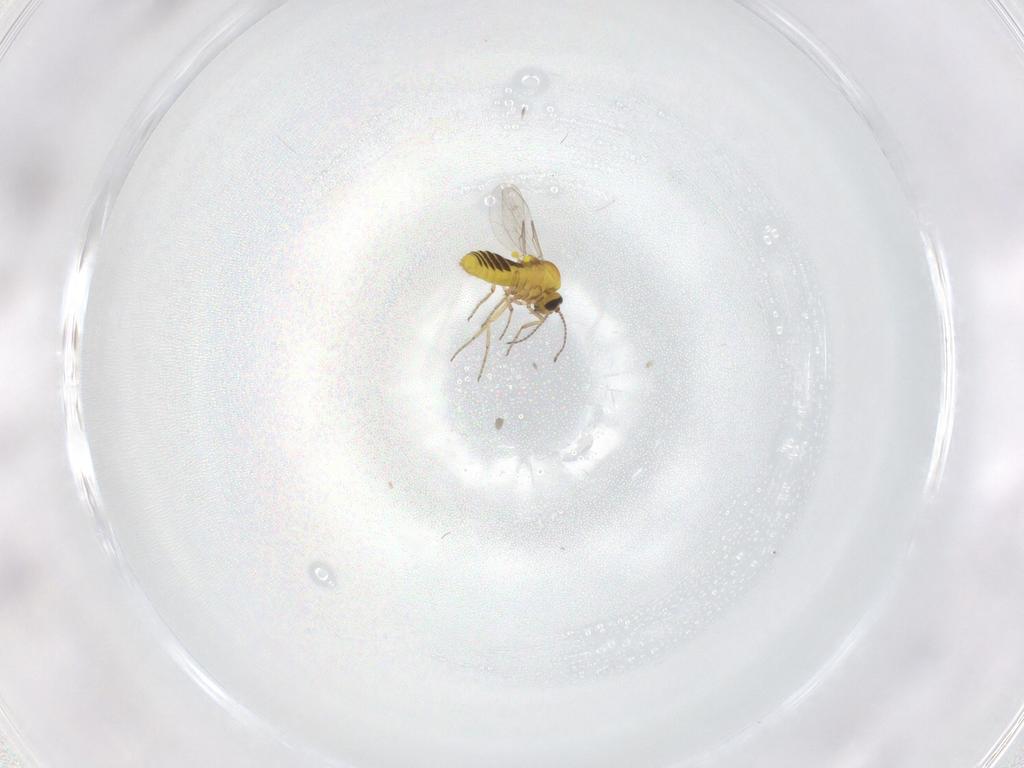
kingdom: Animalia
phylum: Arthropoda
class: Insecta
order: Diptera
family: Ceratopogonidae
